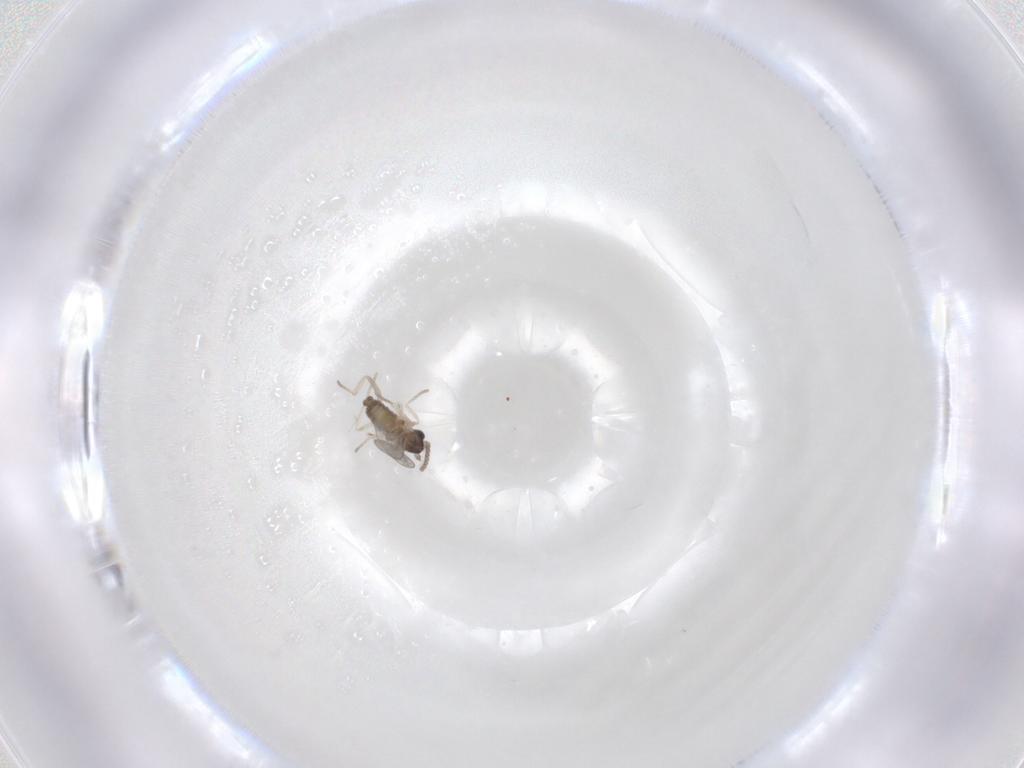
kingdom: Animalia
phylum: Arthropoda
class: Insecta
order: Diptera
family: Cecidomyiidae
